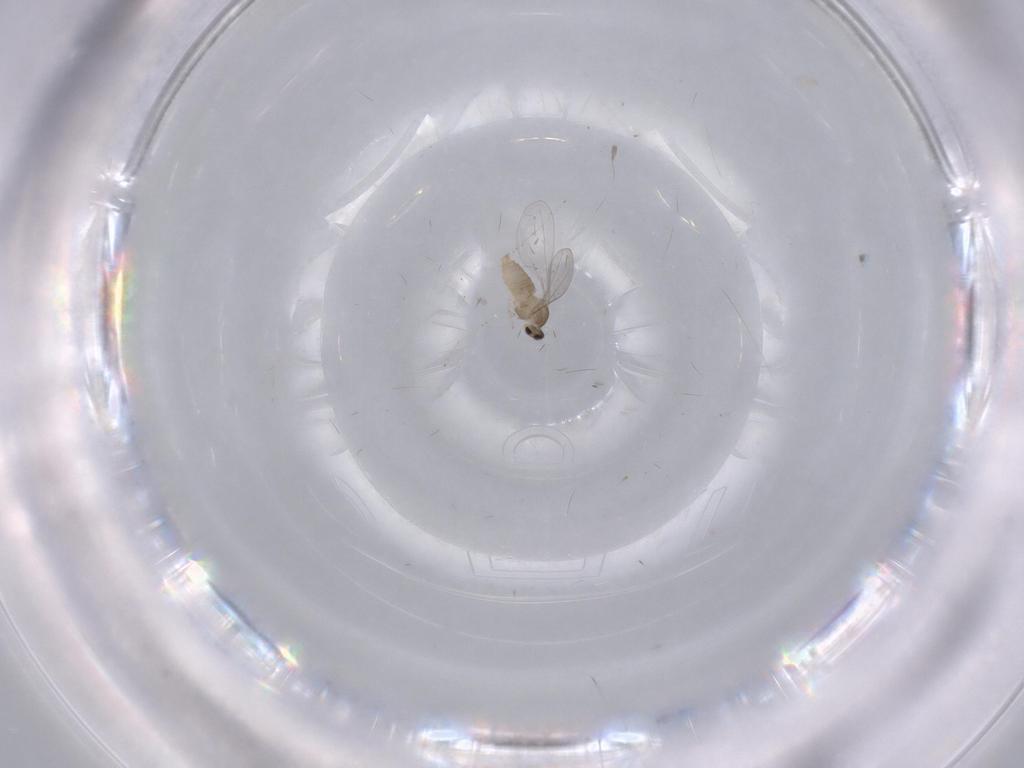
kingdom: Animalia
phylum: Arthropoda
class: Insecta
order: Diptera
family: Cecidomyiidae
